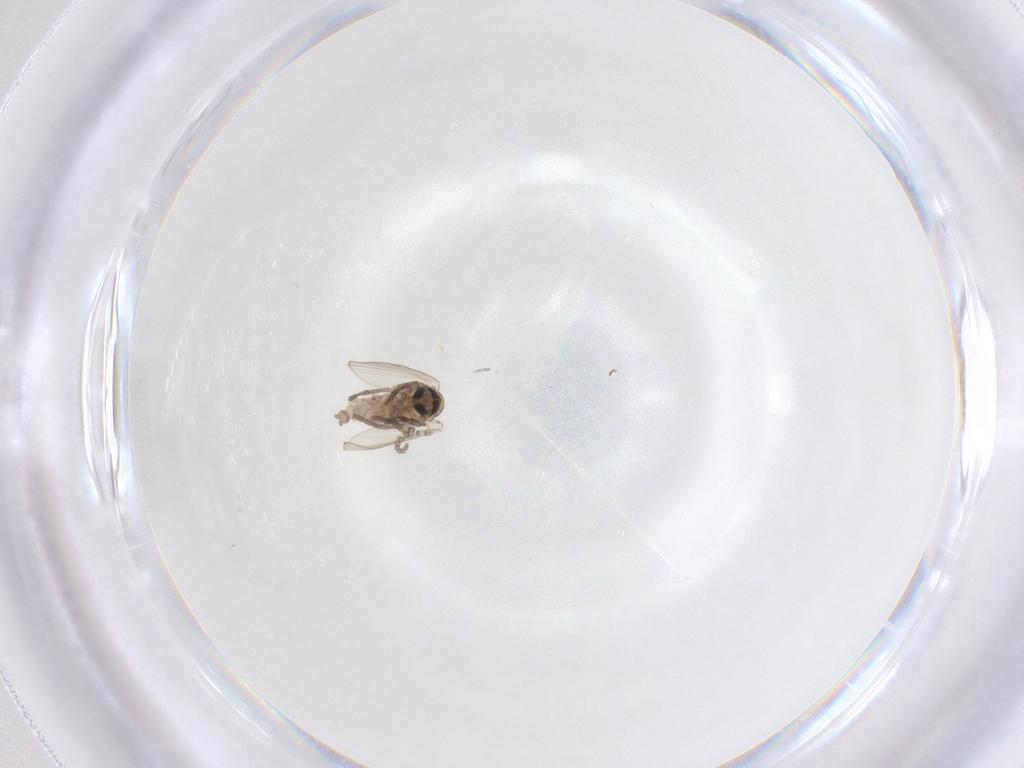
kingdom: Animalia
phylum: Arthropoda
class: Insecta
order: Diptera
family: Psychodidae
